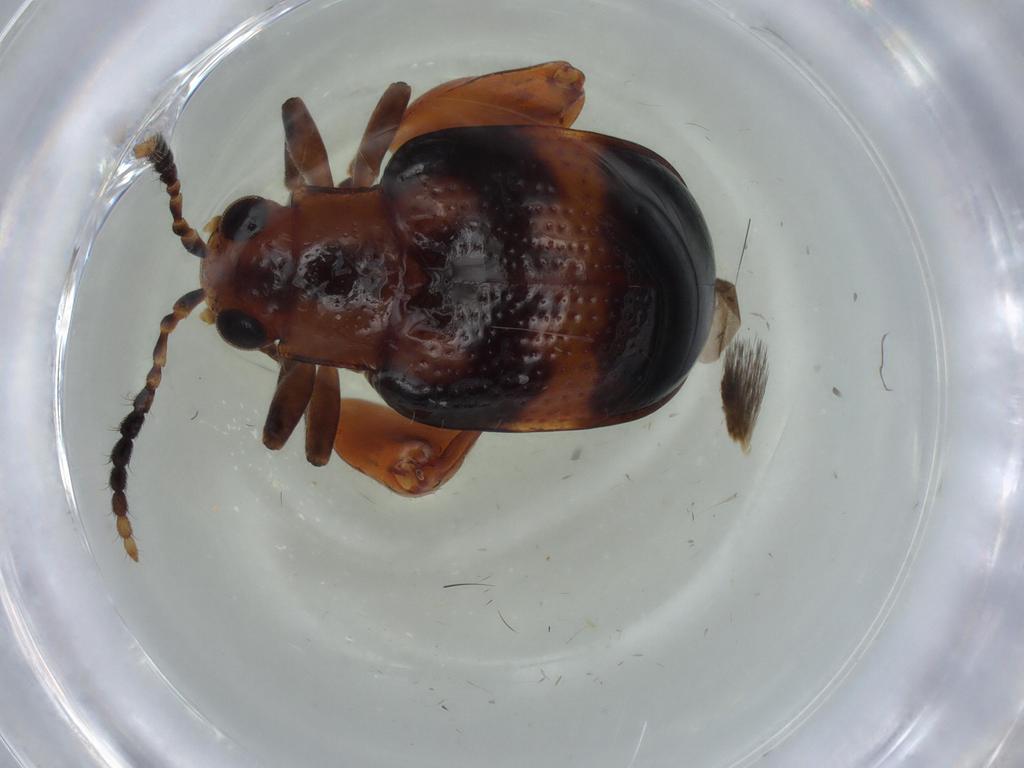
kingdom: Animalia
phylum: Arthropoda
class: Insecta
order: Coleoptera
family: Chrysomelidae
